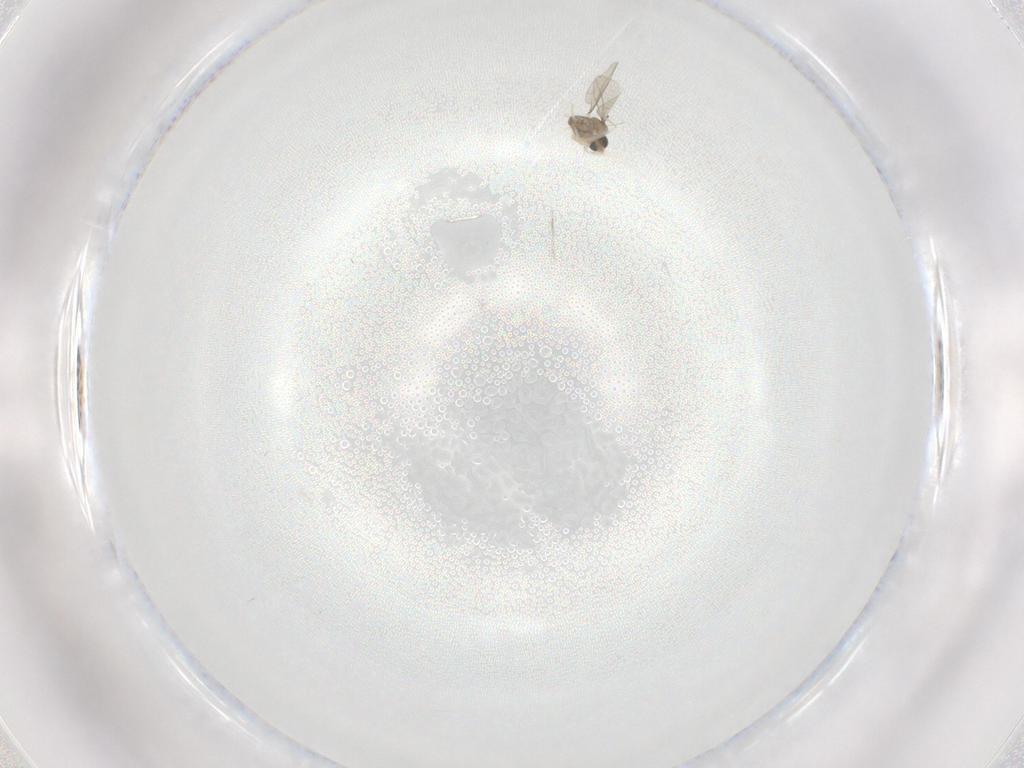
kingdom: Animalia
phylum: Arthropoda
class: Insecta
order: Diptera
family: Cecidomyiidae
